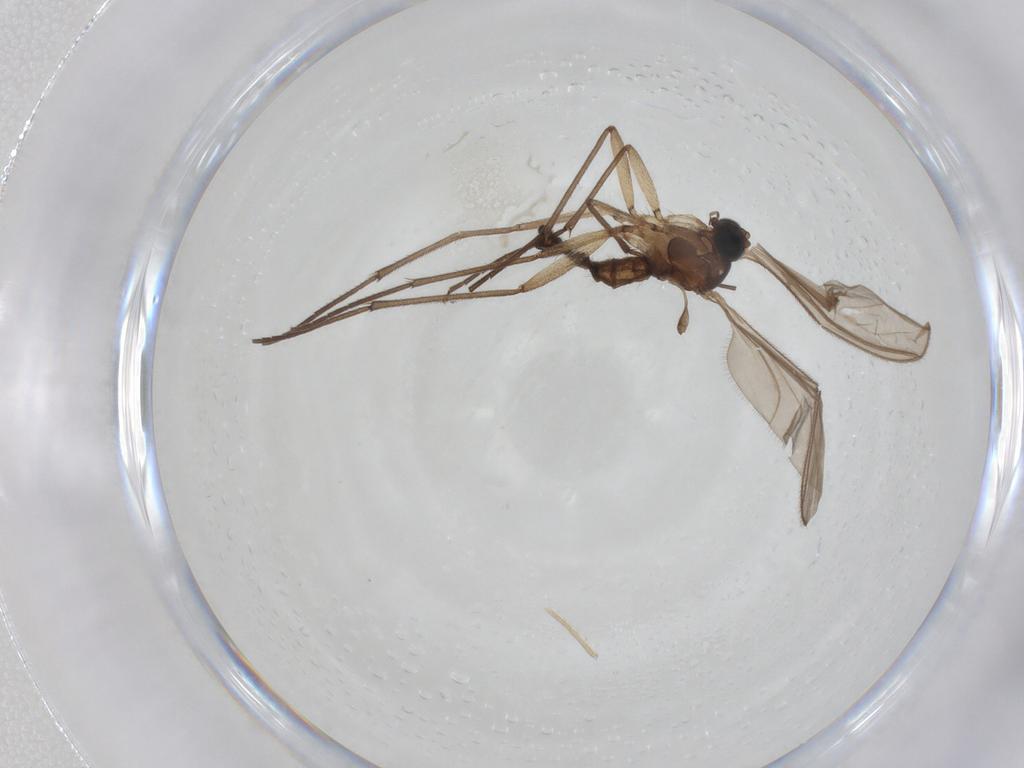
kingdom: Animalia
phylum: Arthropoda
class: Insecta
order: Diptera
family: Sciaridae
